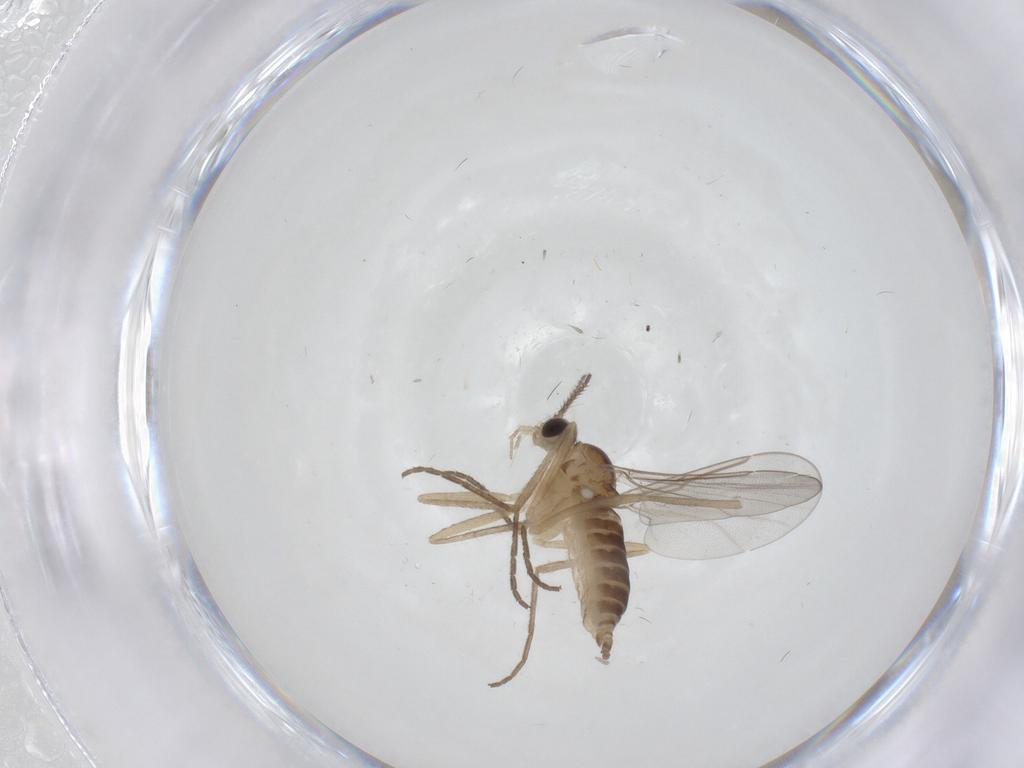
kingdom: Animalia
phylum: Arthropoda
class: Insecta
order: Diptera
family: Cecidomyiidae
